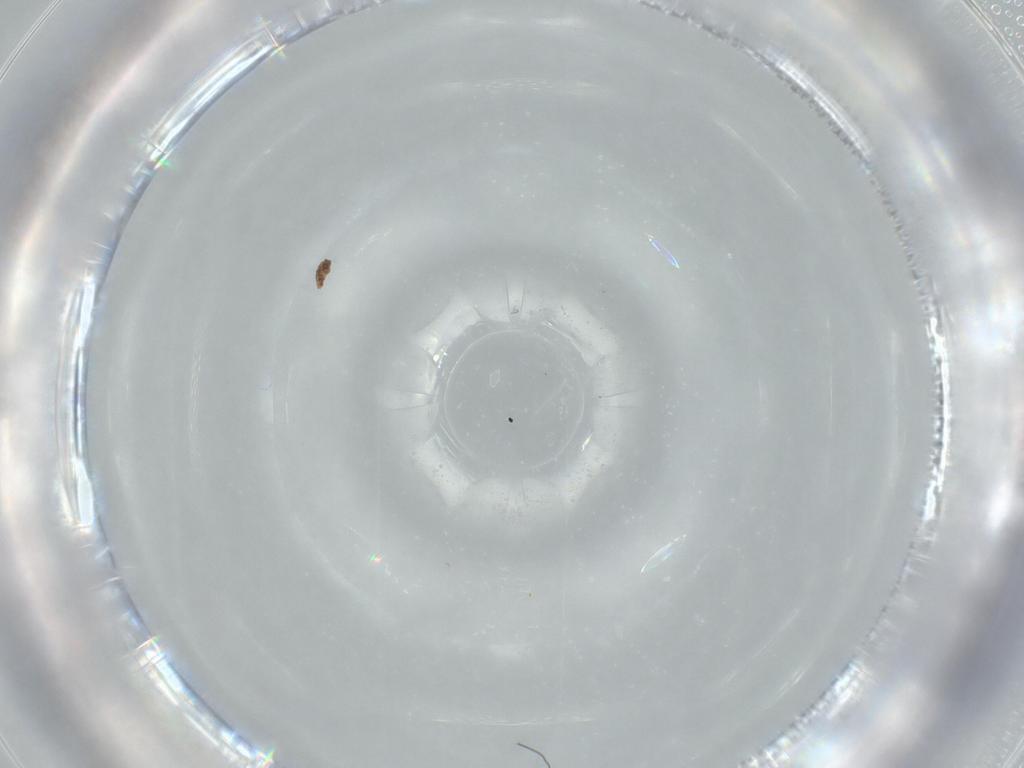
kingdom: Animalia
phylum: Arthropoda
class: Insecta
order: Diptera
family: Phoridae
